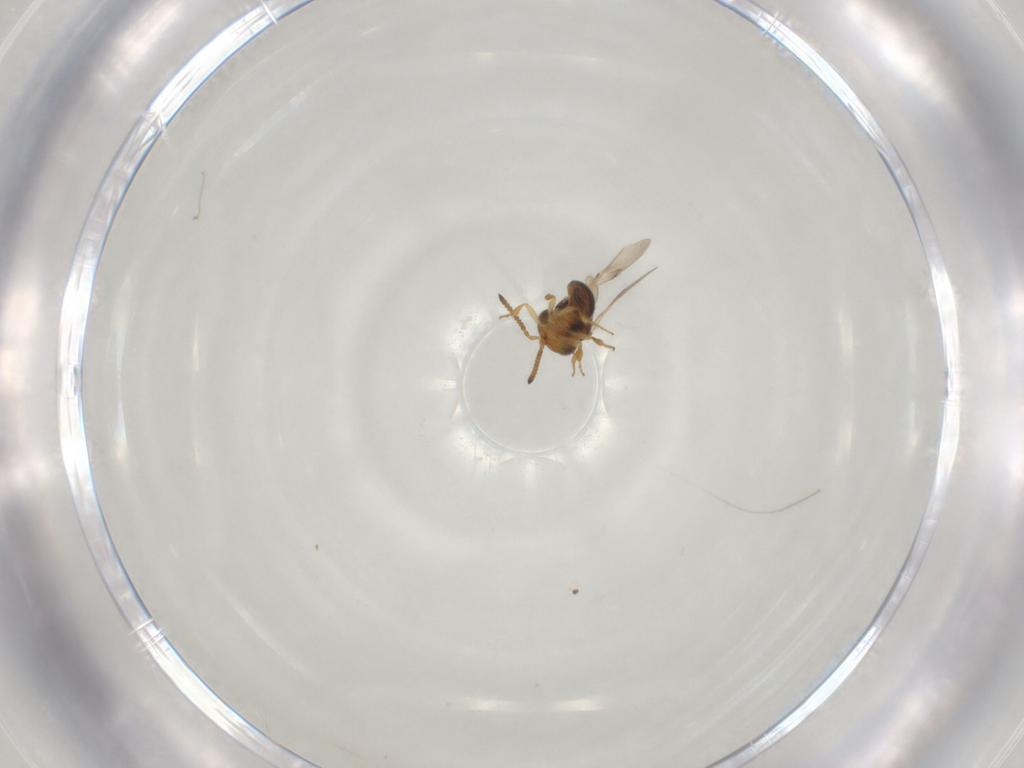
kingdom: Animalia
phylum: Arthropoda
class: Insecta
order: Hymenoptera
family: Scelionidae
